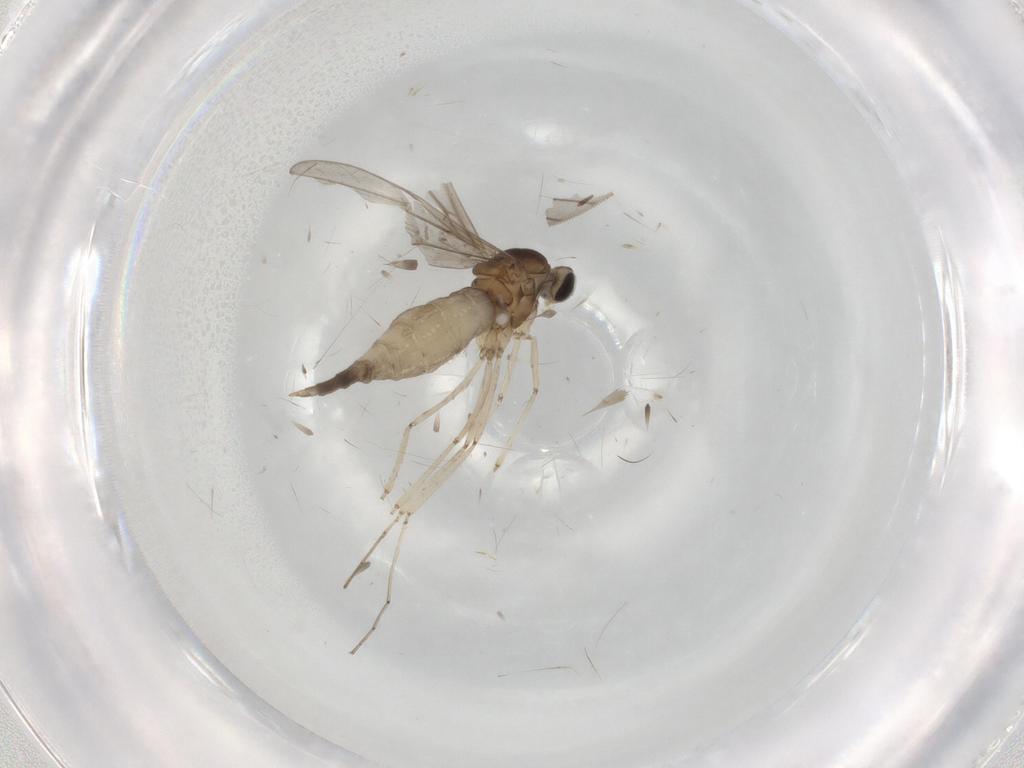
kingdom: Animalia
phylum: Arthropoda
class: Insecta
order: Diptera
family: Cecidomyiidae
